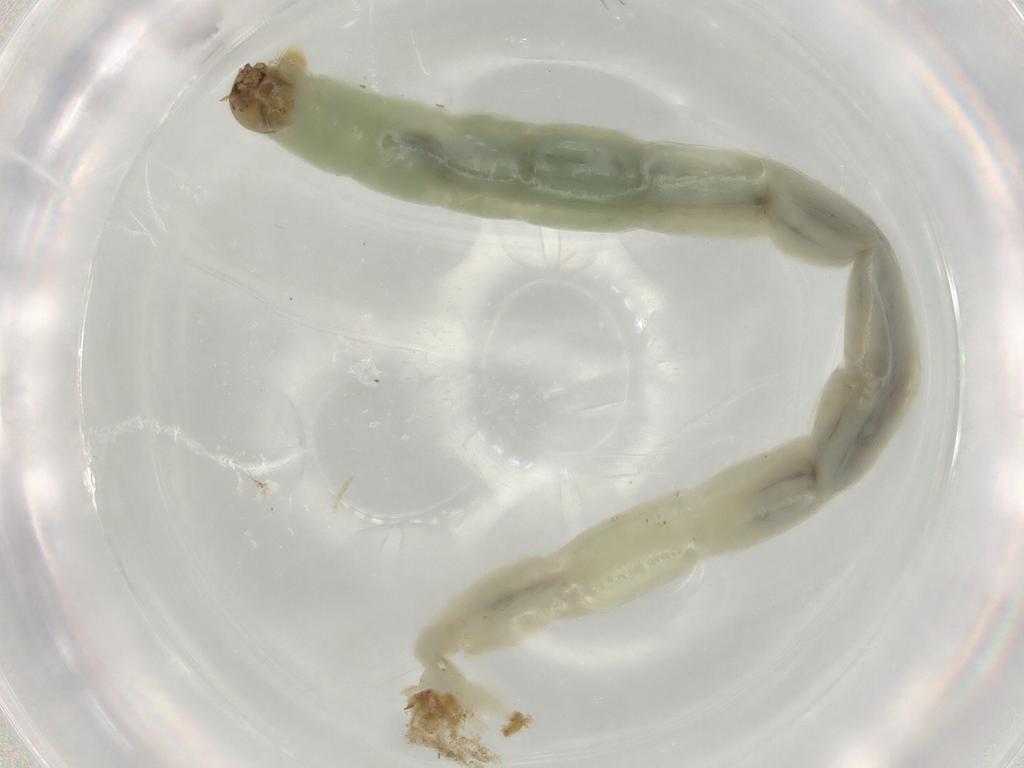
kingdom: Animalia
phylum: Arthropoda
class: Insecta
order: Diptera
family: Chironomidae
